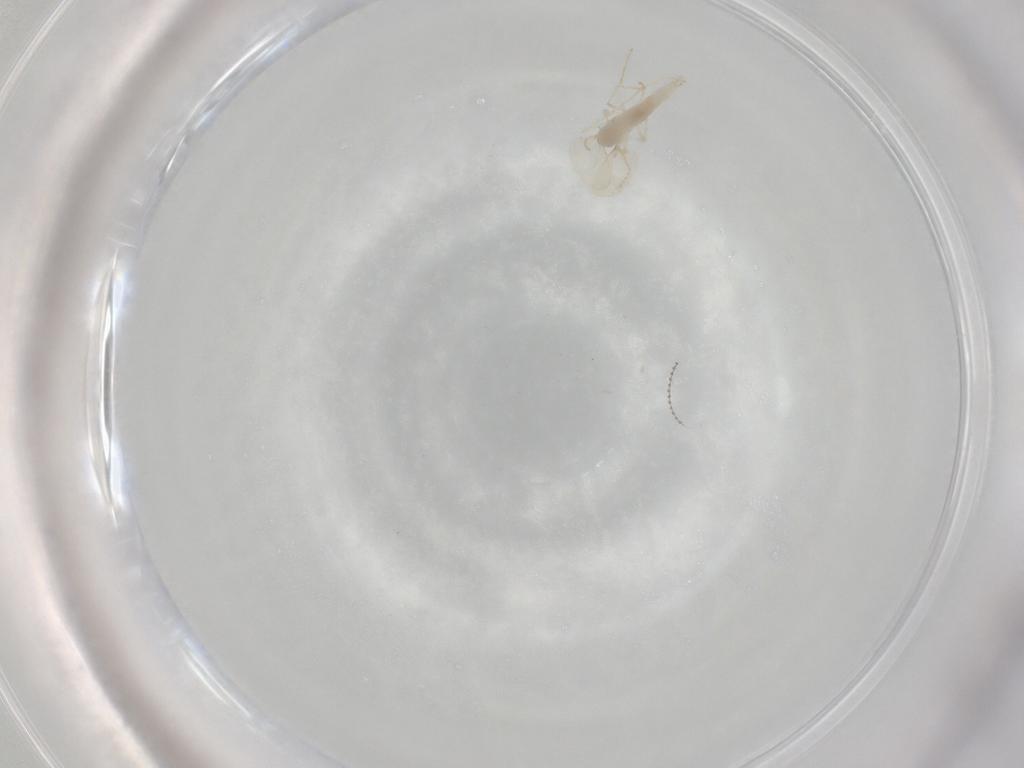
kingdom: Animalia
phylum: Arthropoda
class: Insecta
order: Diptera
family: Cecidomyiidae
